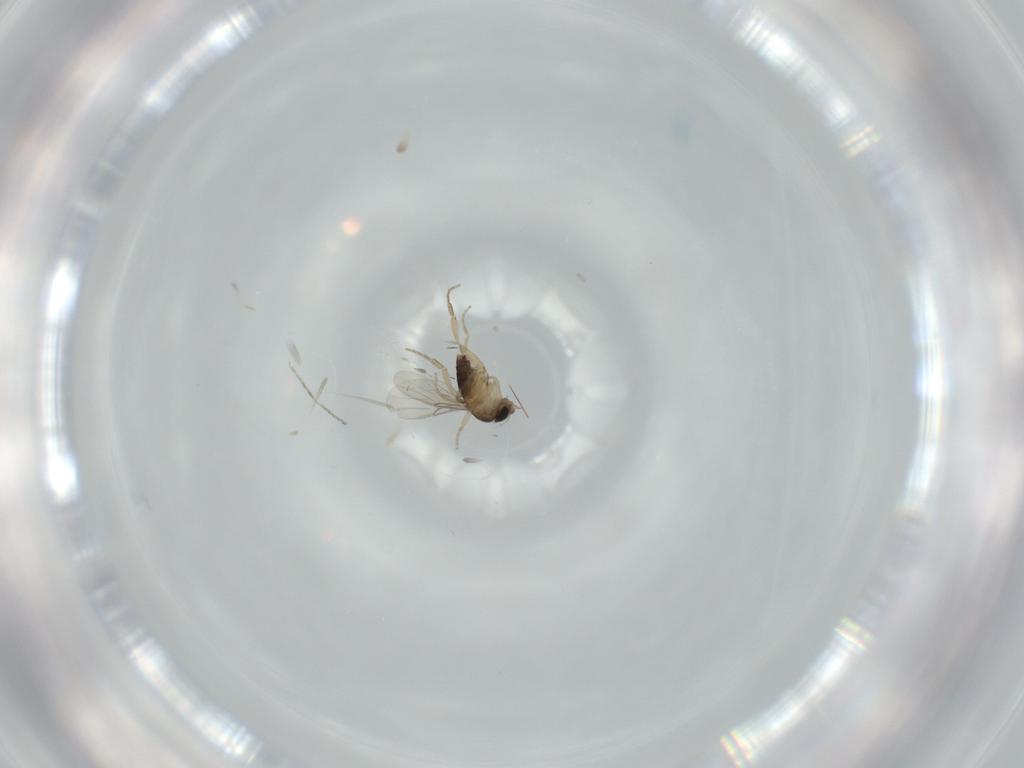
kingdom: Animalia
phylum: Arthropoda
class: Insecta
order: Diptera
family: Phoridae
